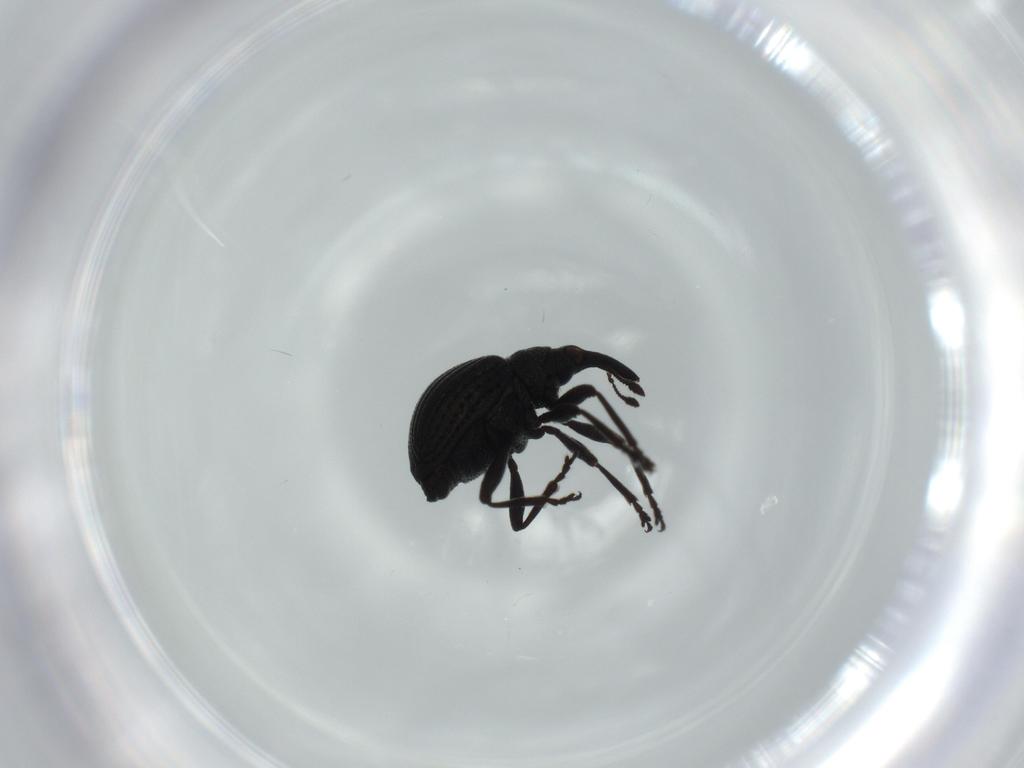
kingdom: Animalia
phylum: Arthropoda
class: Insecta
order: Coleoptera
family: Brentidae
